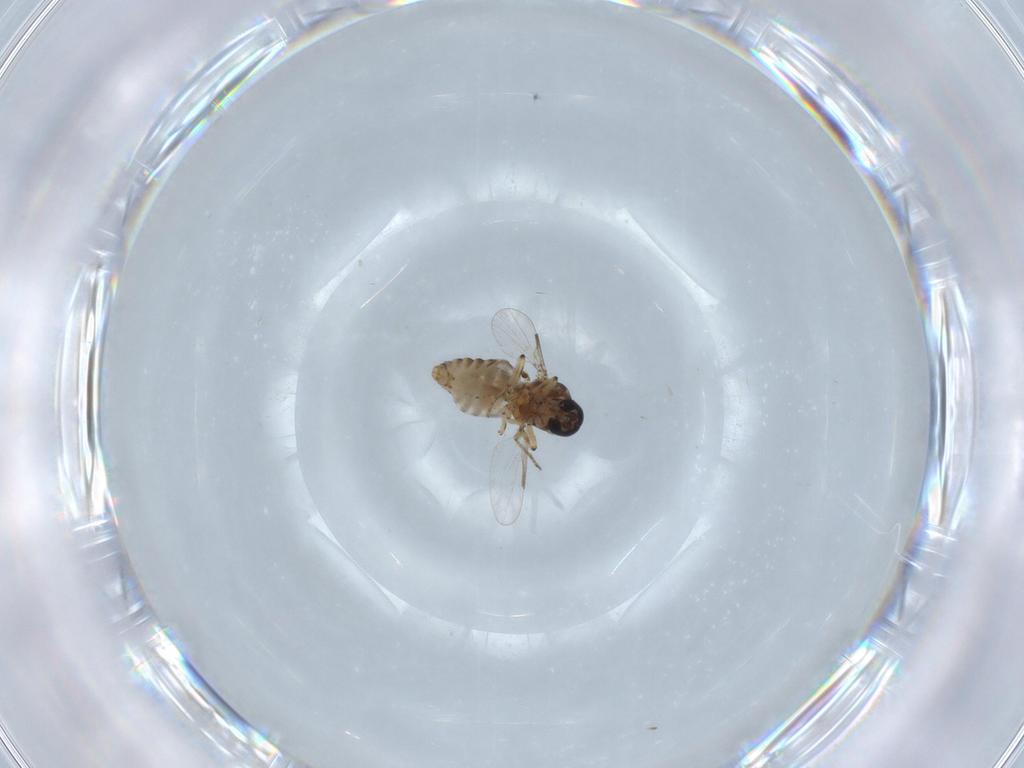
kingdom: Animalia
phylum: Arthropoda
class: Insecta
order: Diptera
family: Ceratopogonidae
